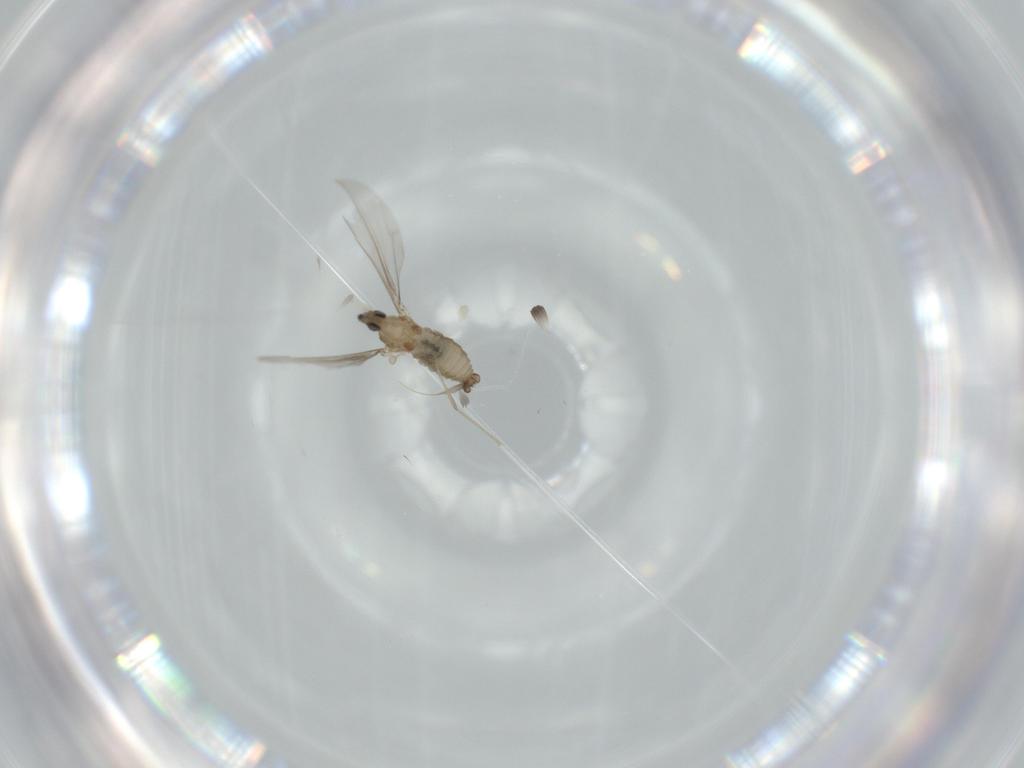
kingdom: Animalia
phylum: Arthropoda
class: Insecta
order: Diptera
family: Cecidomyiidae
